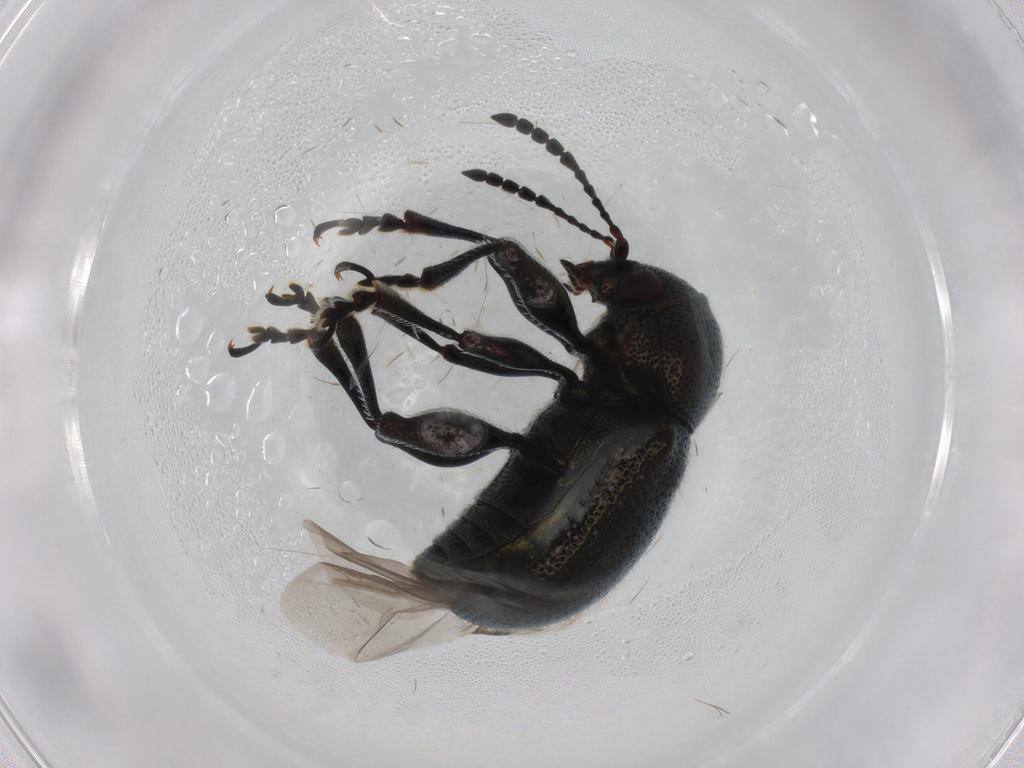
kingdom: Animalia
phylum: Arthropoda
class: Insecta
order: Coleoptera
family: Chrysomelidae
